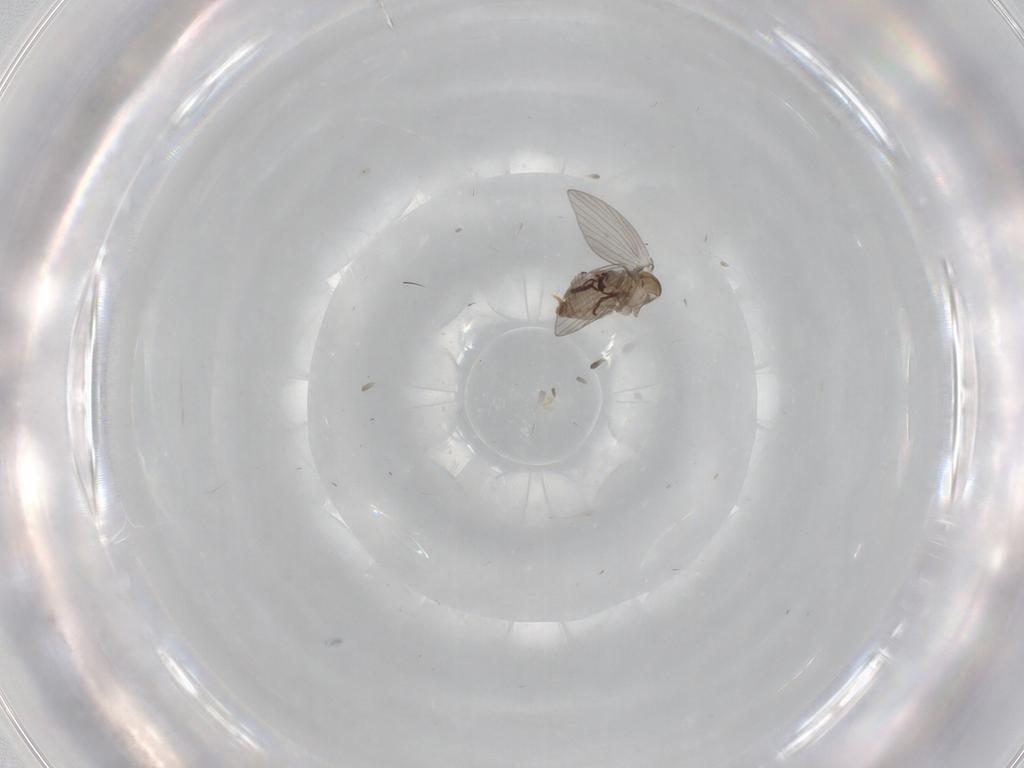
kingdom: Animalia
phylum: Arthropoda
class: Insecta
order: Diptera
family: Psychodidae
